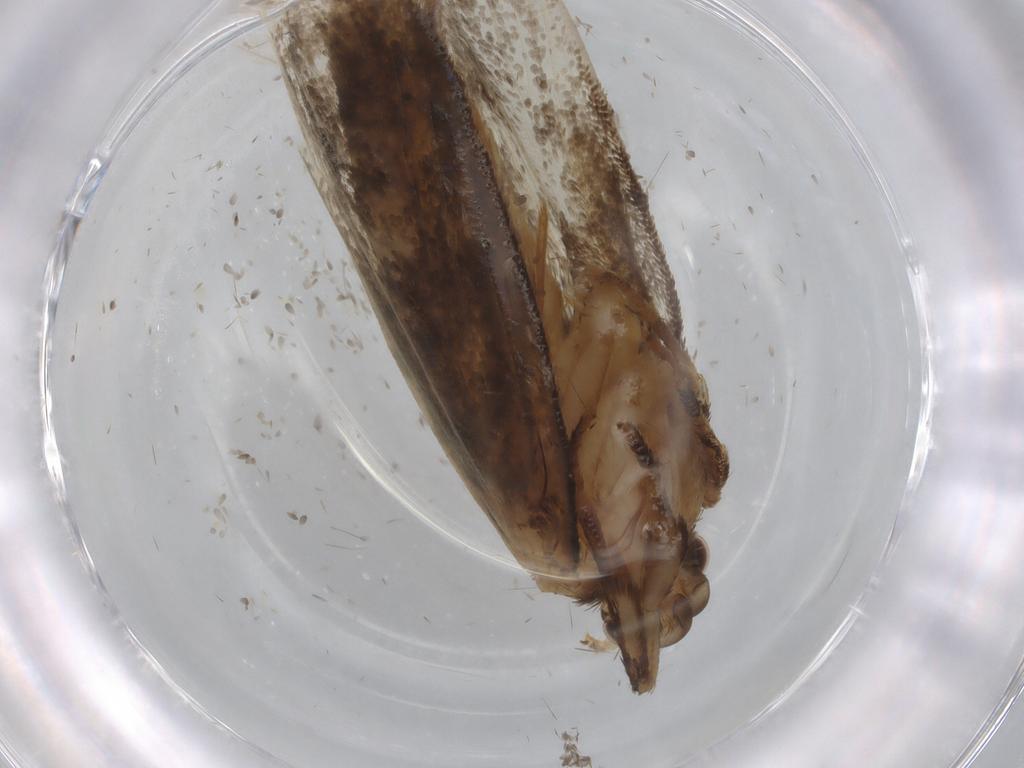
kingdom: Animalia
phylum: Arthropoda
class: Insecta
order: Lepidoptera
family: Tineidae
